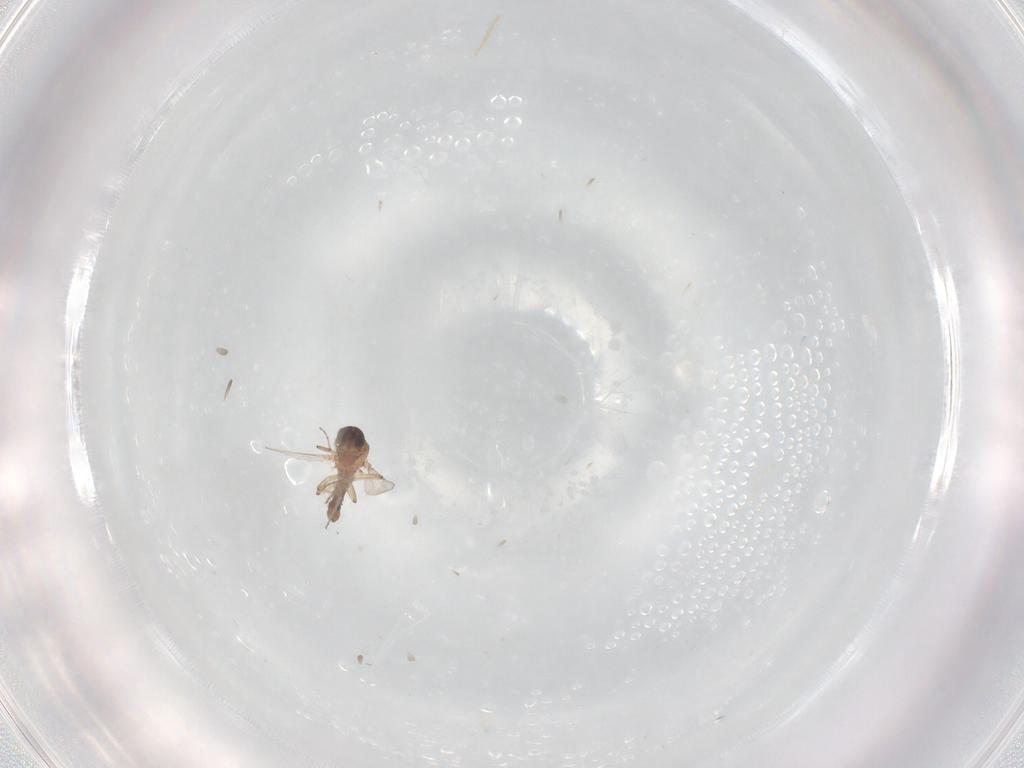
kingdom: Animalia
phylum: Arthropoda
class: Insecta
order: Diptera
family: Ceratopogonidae
